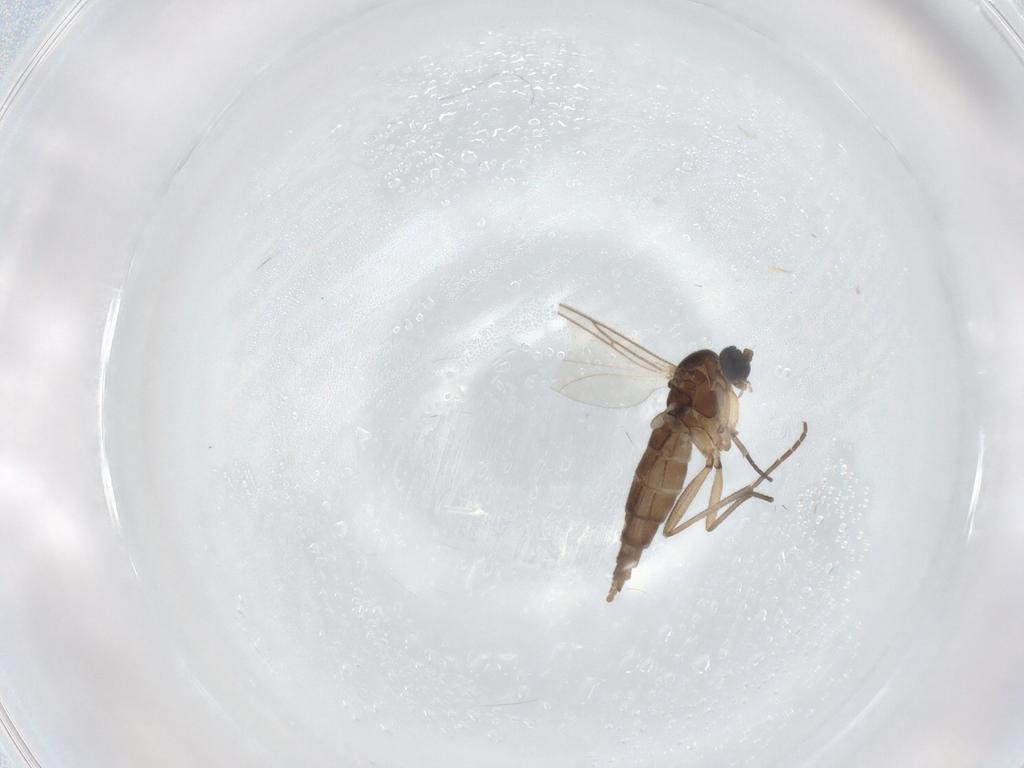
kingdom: Animalia
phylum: Arthropoda
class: Insecta
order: Diptera
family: Sciaridae
